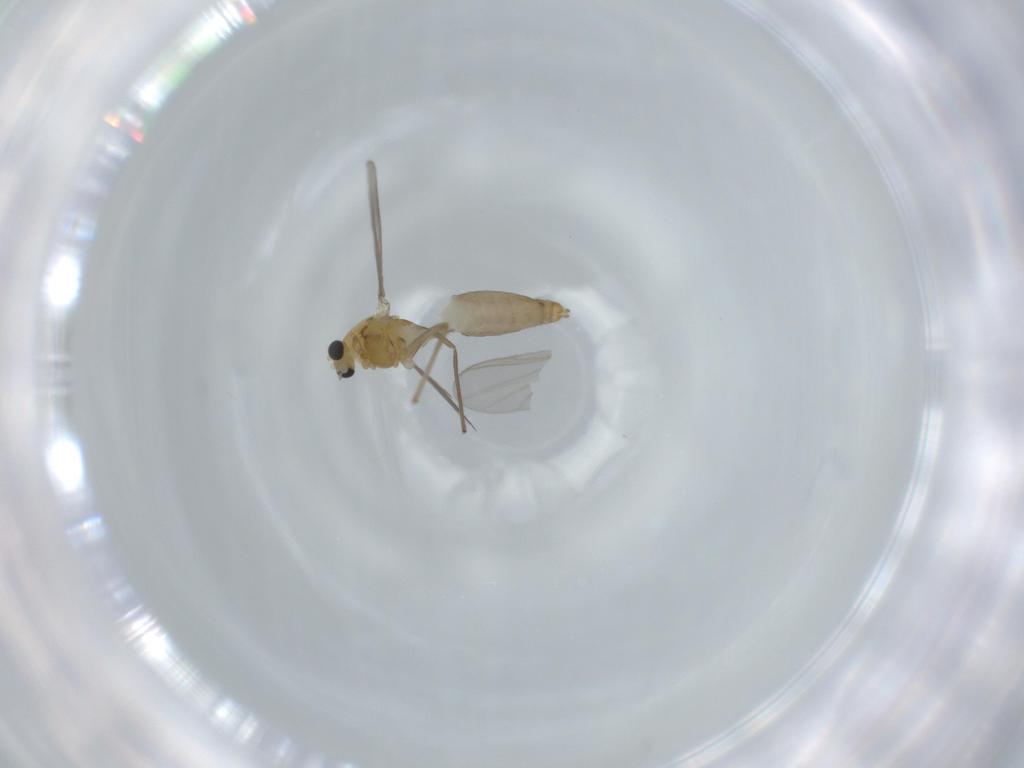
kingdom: Animalia
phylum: Arthropoda
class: Insecta
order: Diptera
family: Chironomidae
